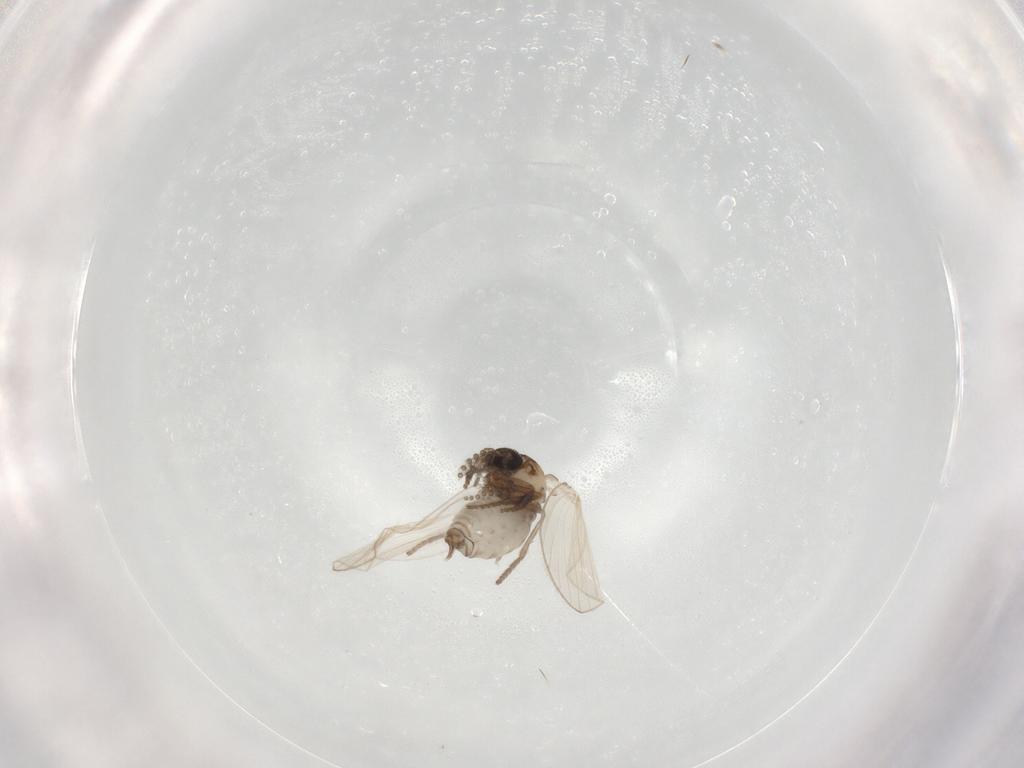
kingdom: Animalia
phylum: Arthropoda
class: Insecta
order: Diptera
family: Psychodidae
